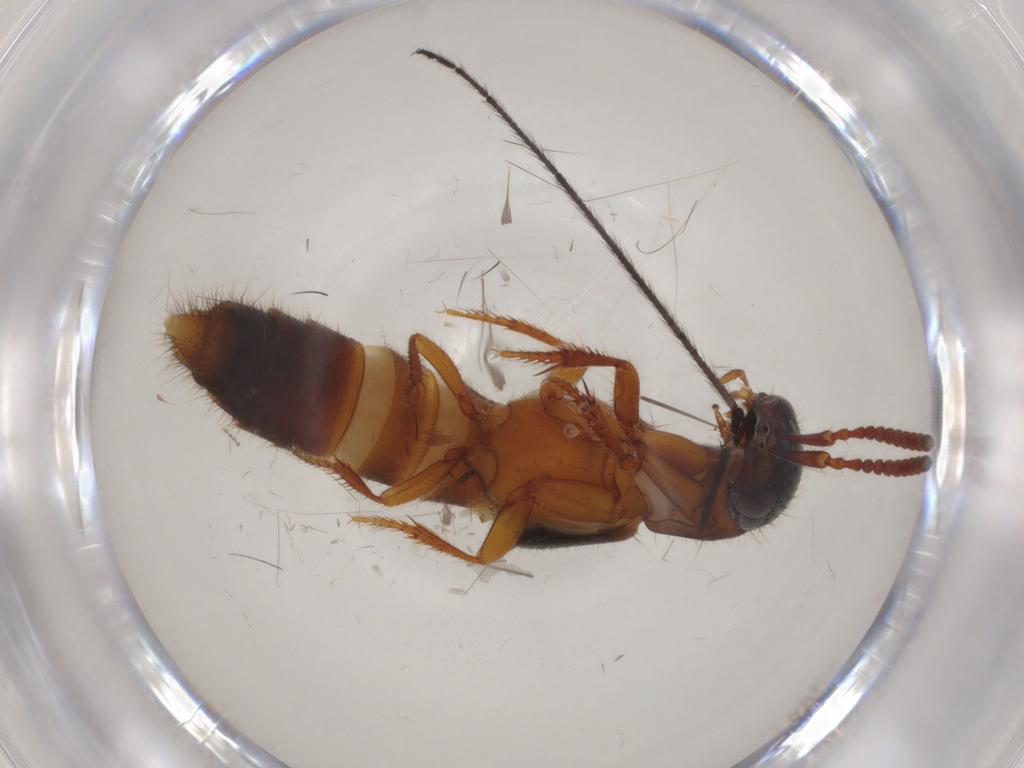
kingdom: Animalia
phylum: Arthropoda
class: Insecta
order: Coleoptera
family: Staphylinidae
